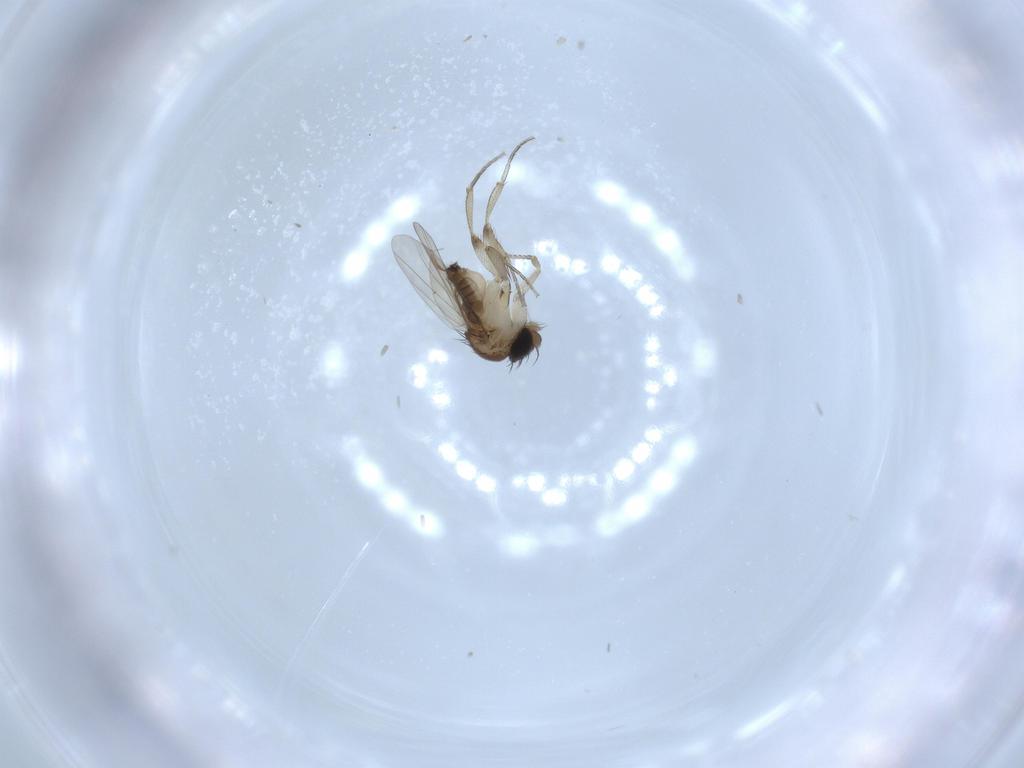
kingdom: Animalia
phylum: Arthropoda
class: Insecta
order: Diptera
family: Phoridae
